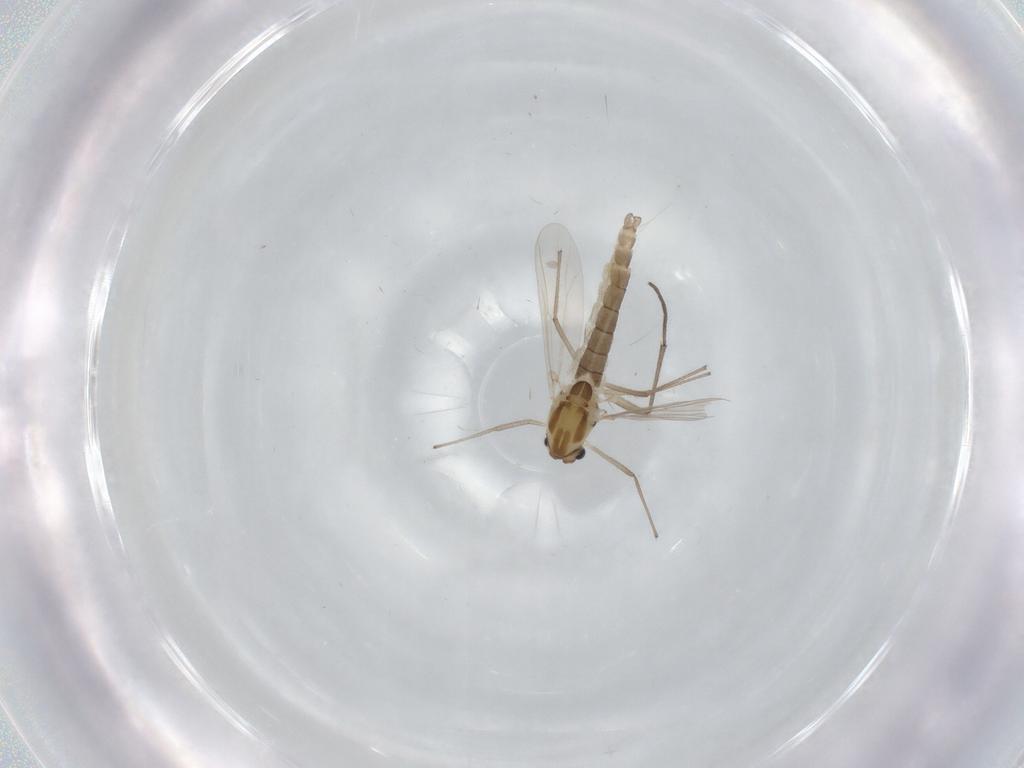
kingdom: Animalia
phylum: Arthropoda
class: Insecta
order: Diptera
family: Chironomidae
